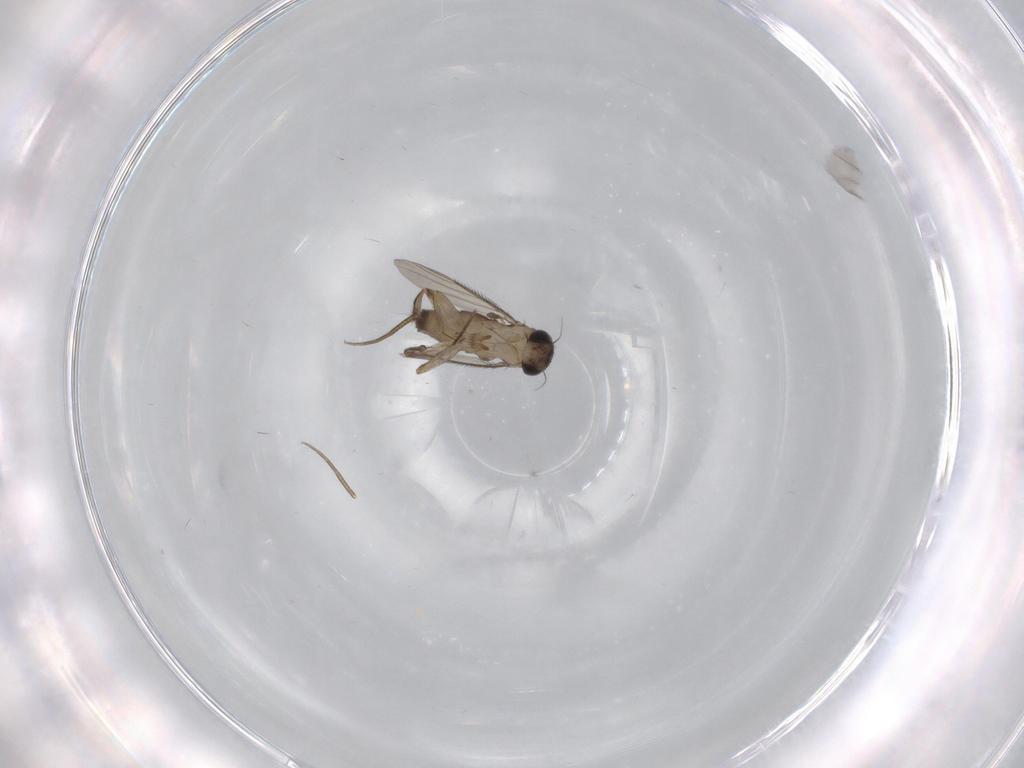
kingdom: Animalia
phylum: Arthropoda
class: Insecta
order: Diptera
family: Phoridae
